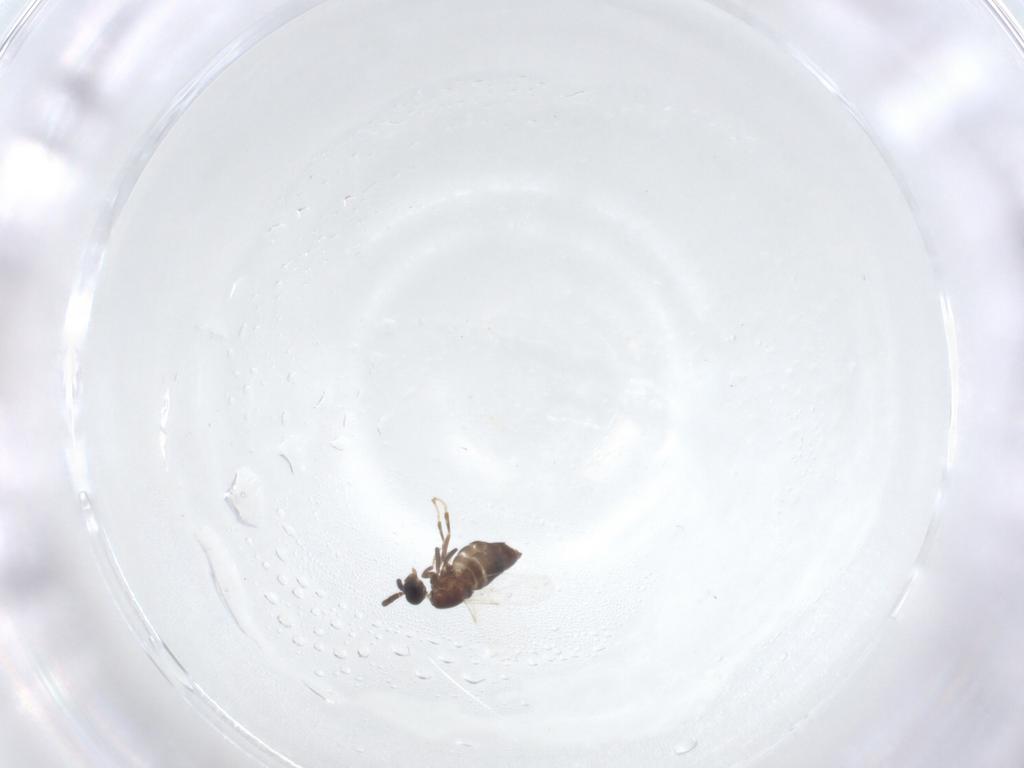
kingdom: Animalia
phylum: Arthropoda
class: Insecta
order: Diptera
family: Scatopsidae
